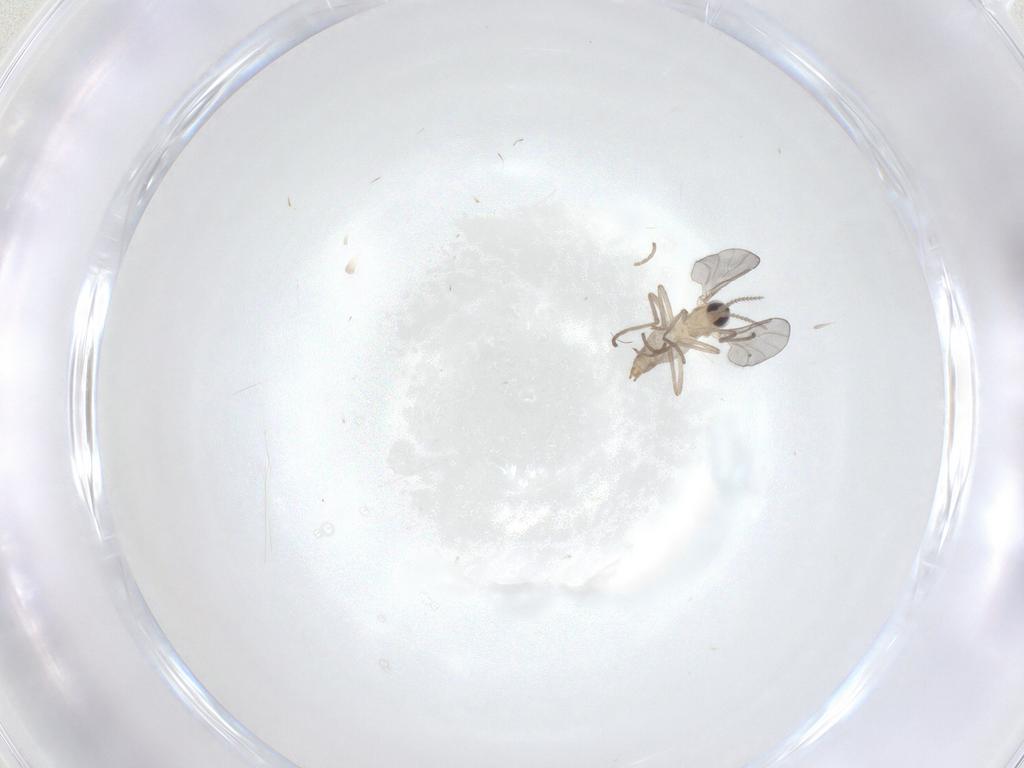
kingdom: Animalia
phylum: Arthropoda
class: Insecta
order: Diptera
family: Cecidomyiidae
